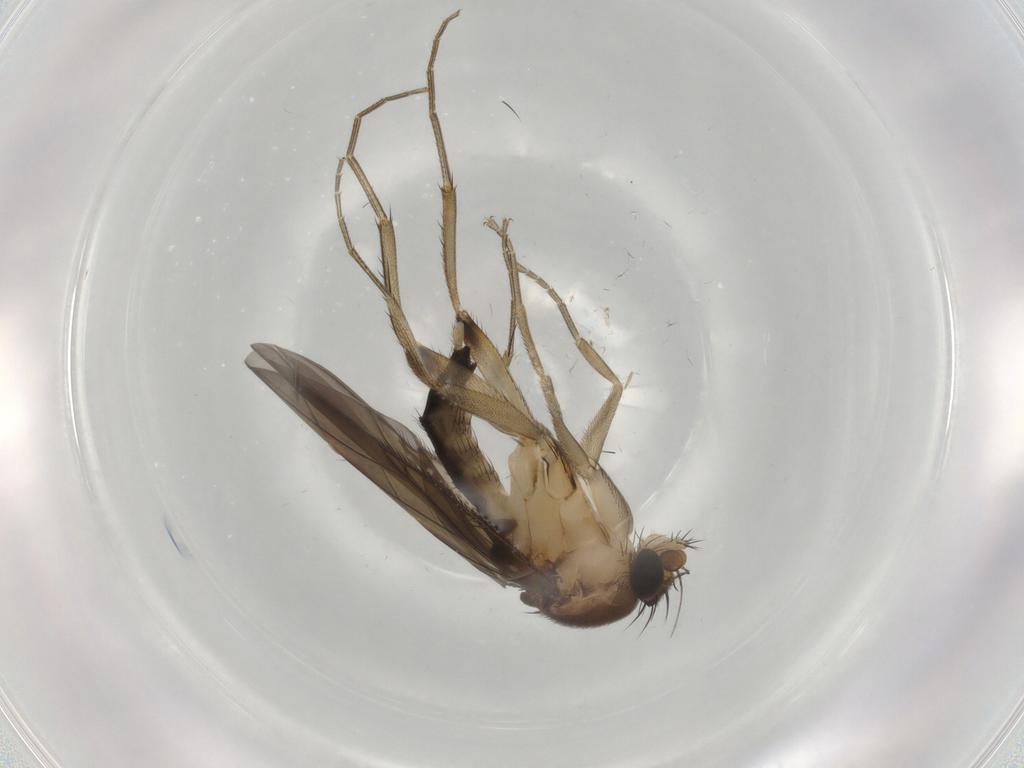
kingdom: Animalia
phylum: Arthropoda
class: Insecta
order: Diptera
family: Phoridae
